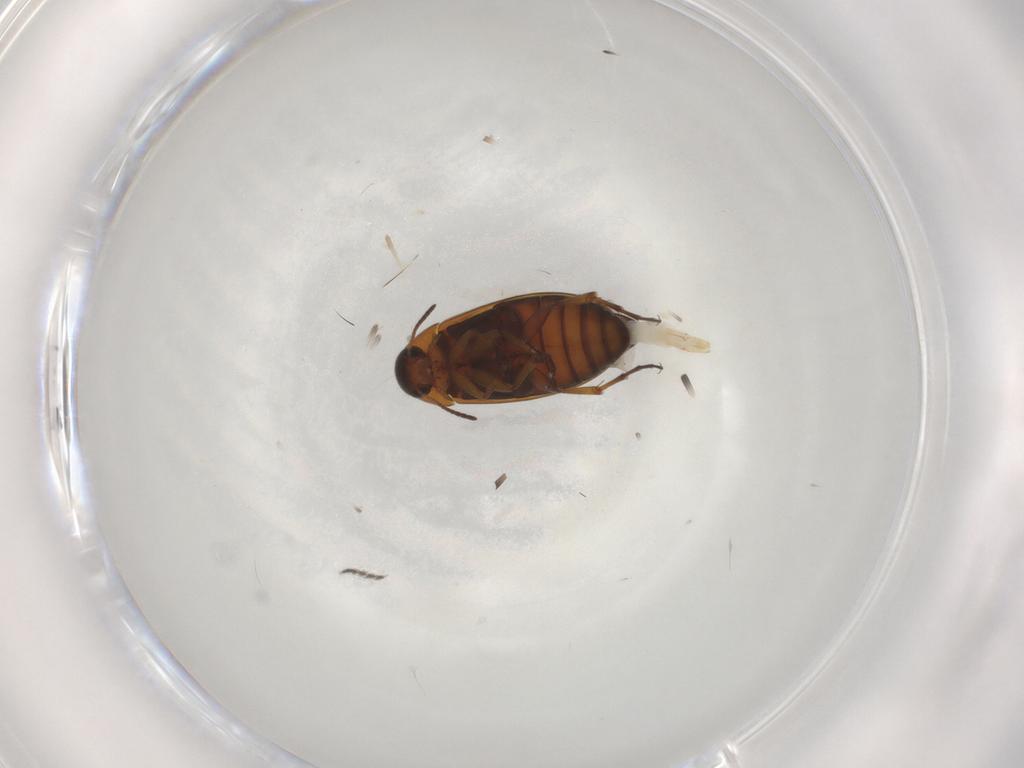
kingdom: Animalia
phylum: Arthropoda
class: Insecta
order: Coleoptera
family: Scraptiidae
